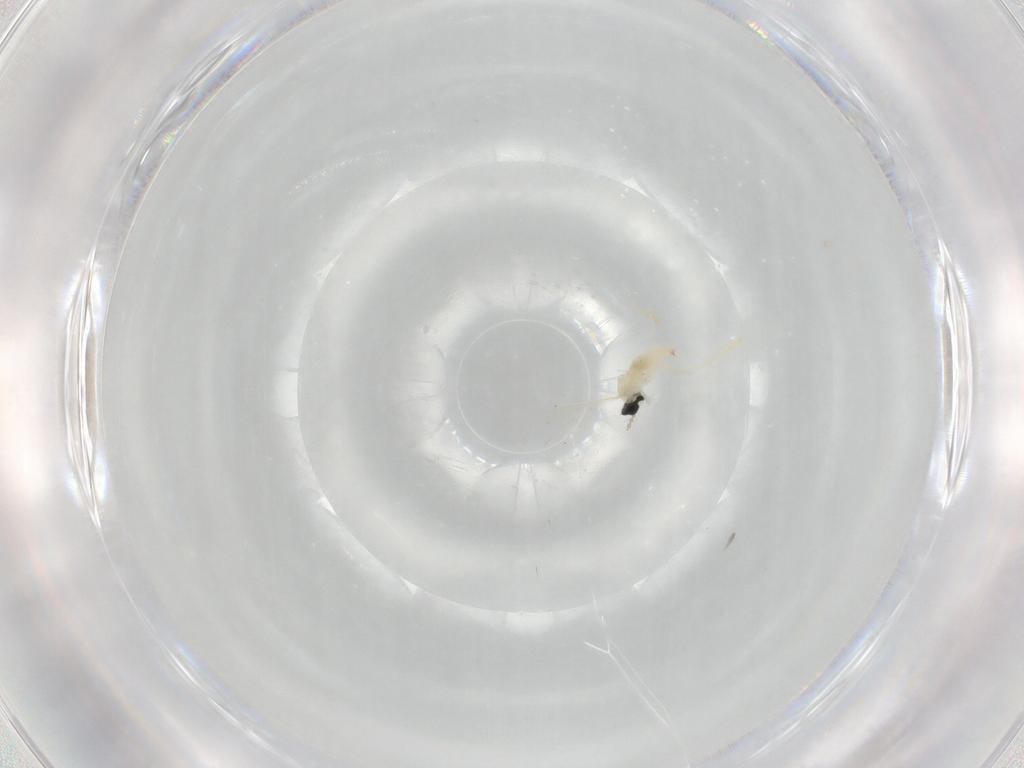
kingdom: Animalia
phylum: Arthropoda
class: Insecta
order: Diptera
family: Cecidomyiidae
